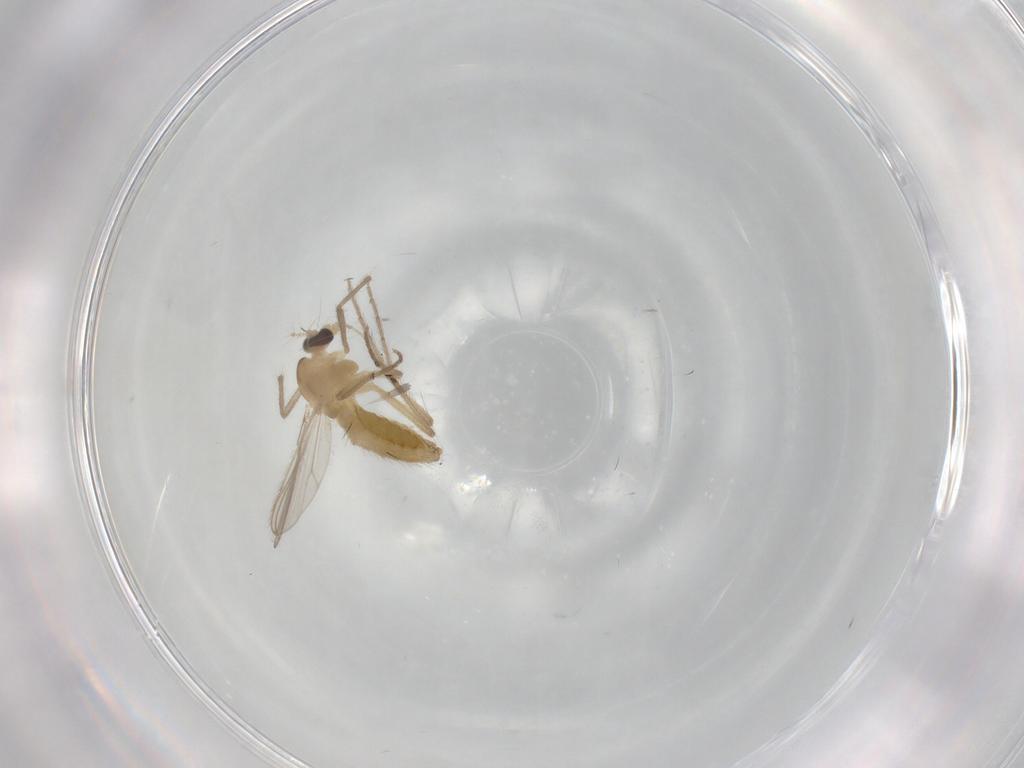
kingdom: Animalia
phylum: Arthropoda
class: Insecta
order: Diptera
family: Chironomidae
